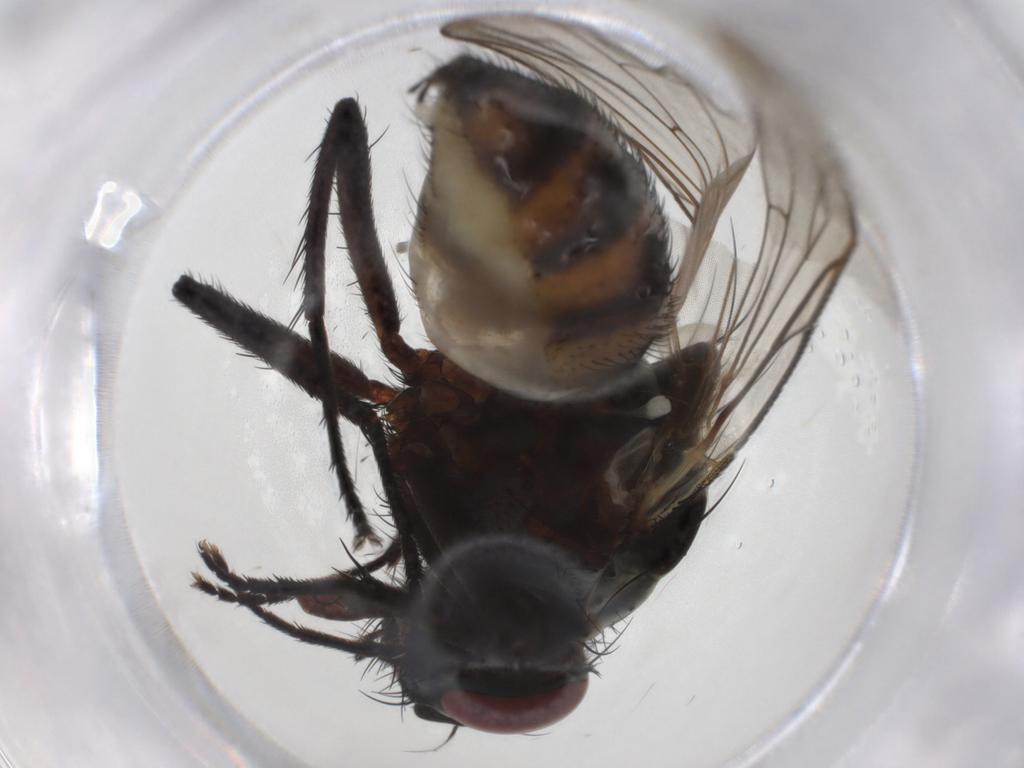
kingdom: Animalia
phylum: Arthropoda
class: Insecta
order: Diptera
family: Anthomyiidae
